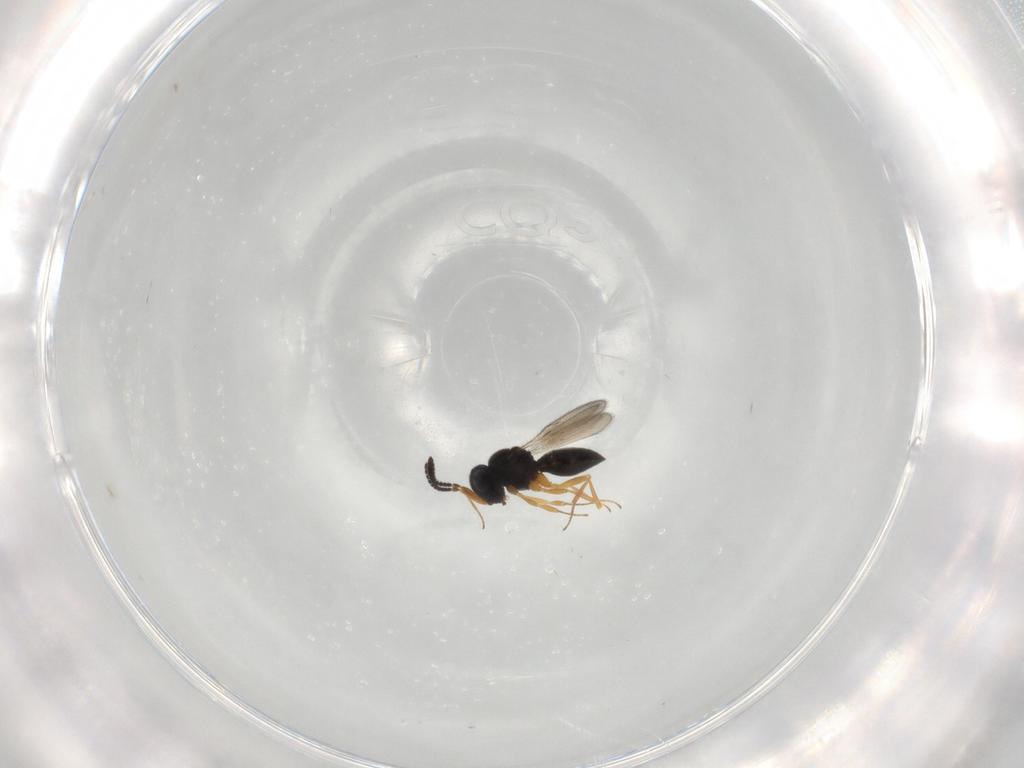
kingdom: Animalia
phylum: Arthropoda
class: Insecta
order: Hymenoptera
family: Scelionidae
